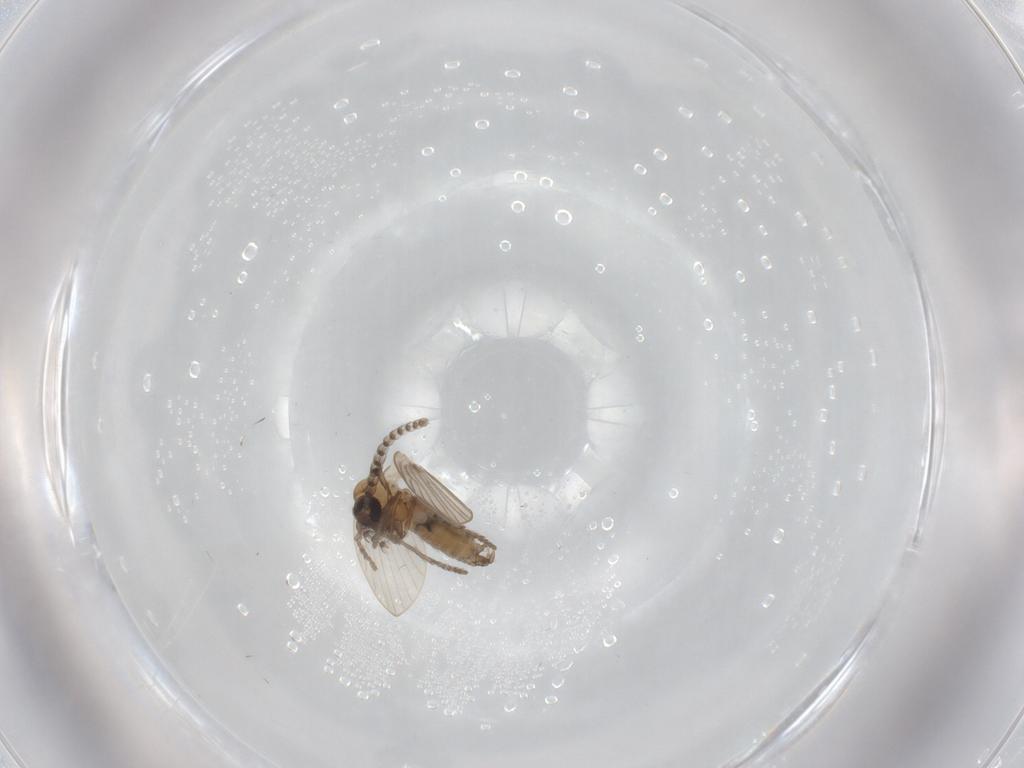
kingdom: Animalia
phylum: Arthropoda
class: Insecta
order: Diptera
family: Psychodidae
